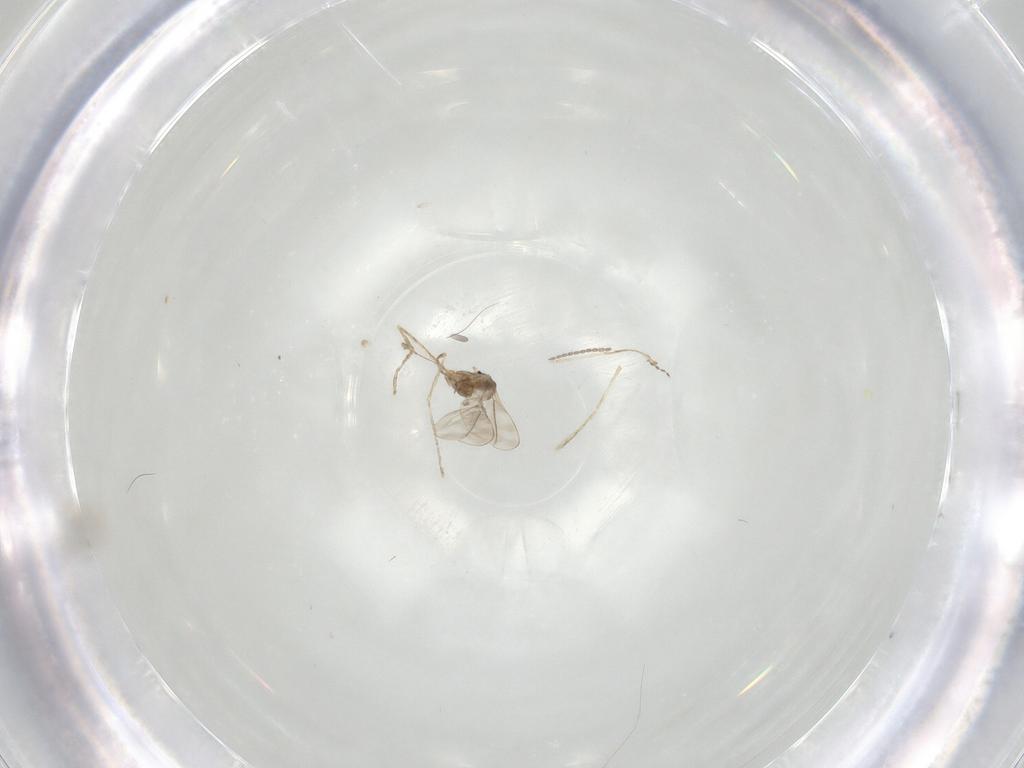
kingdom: Animalia
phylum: Arthropoda
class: Insecta
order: Diptera
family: Cecidomyiidae
